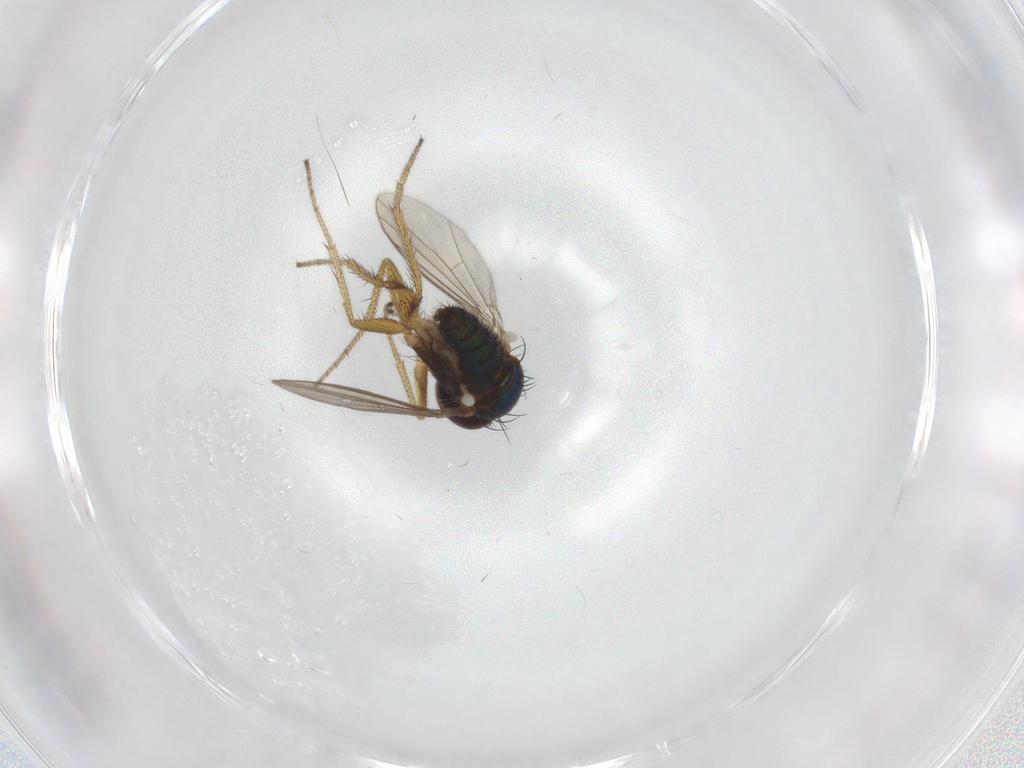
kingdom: Animalia
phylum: Arthropoda
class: Insecta
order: Diptera
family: Dolichopodidae
